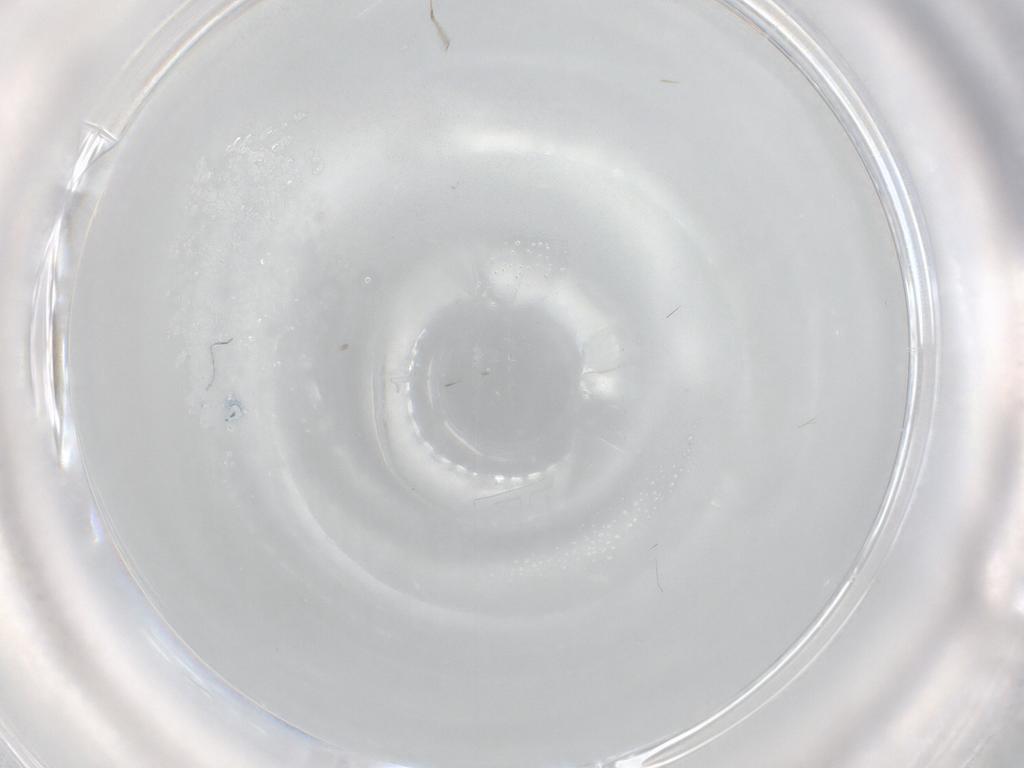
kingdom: Animalia
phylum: Arthropoda
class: Insecta
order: Diptera
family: Cecidomyiidae
